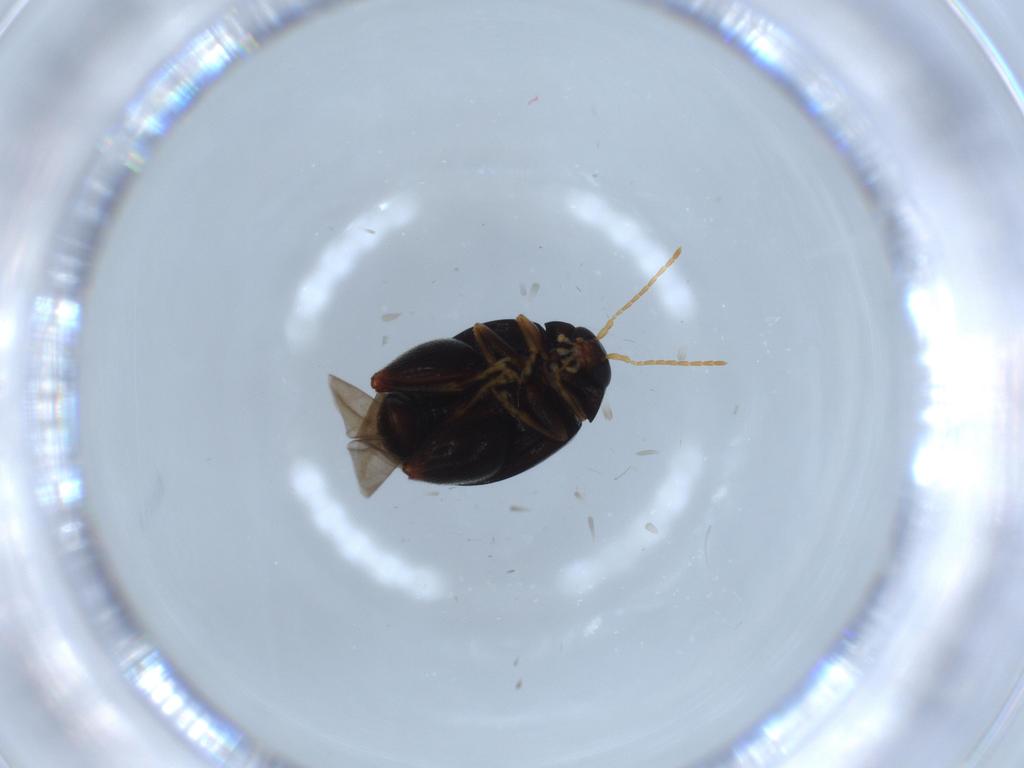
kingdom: Animalia
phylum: Arthropoda
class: Insecta
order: Coleoptera
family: Chrysomelidae
